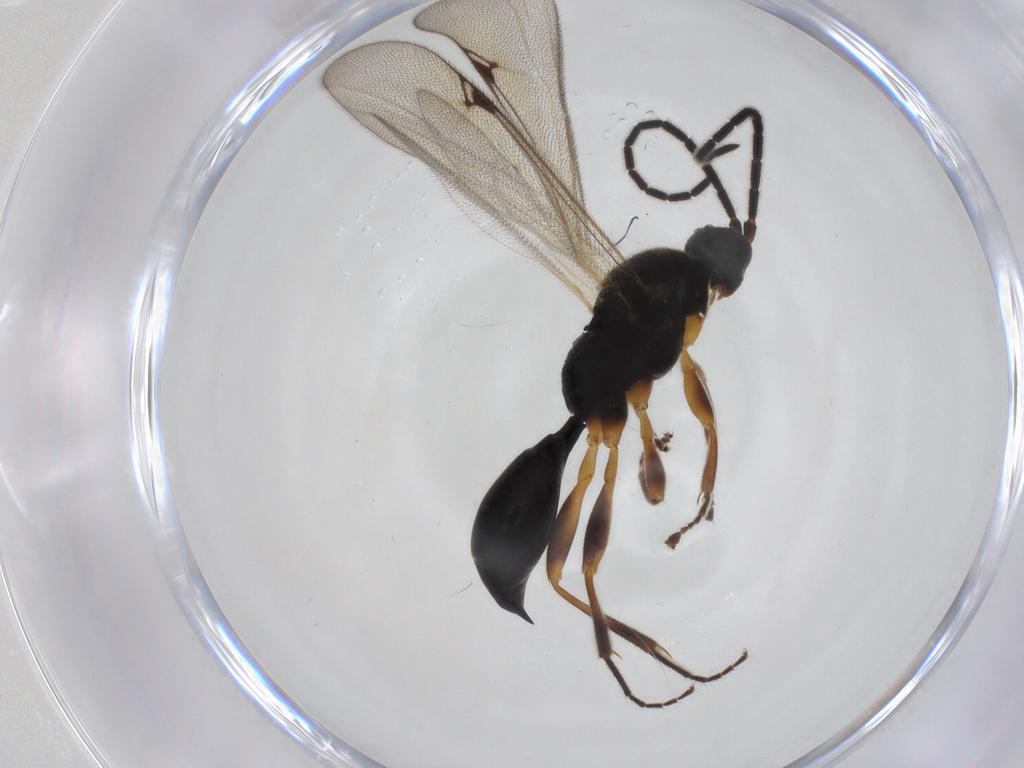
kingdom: Animalia
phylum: Arthropoda
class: Insecta
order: Hymenoptera
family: Proctotrupidae
